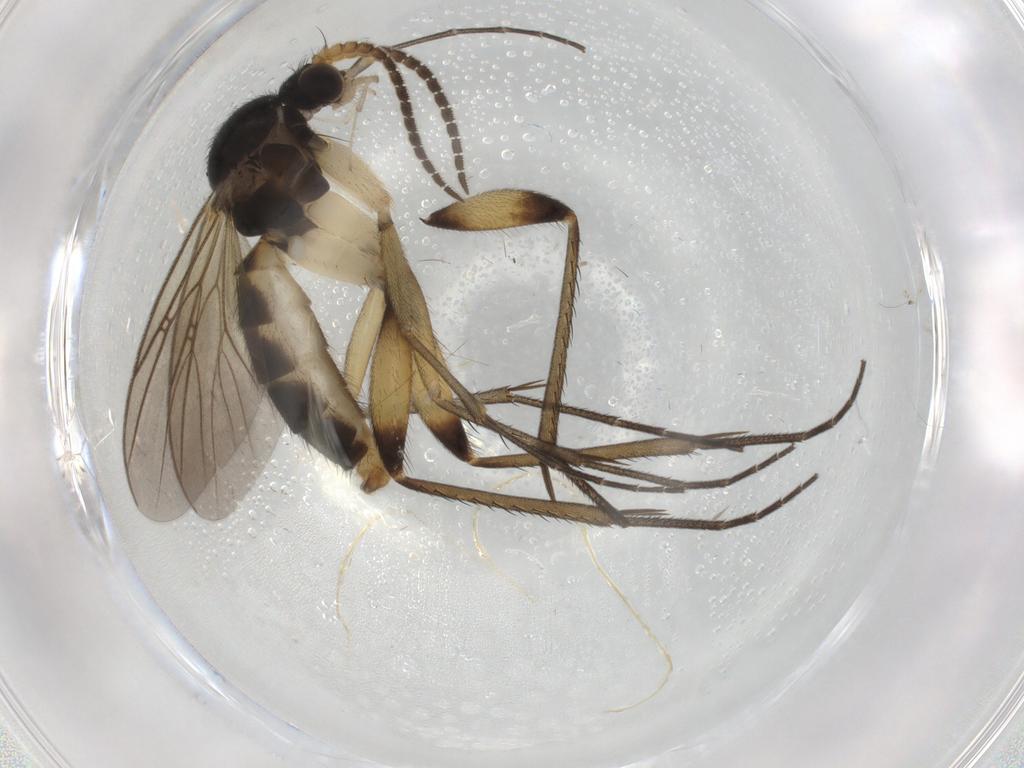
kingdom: Animalia
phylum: Arthropoda
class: Insecta
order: Diptera
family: Mycetophilidae
